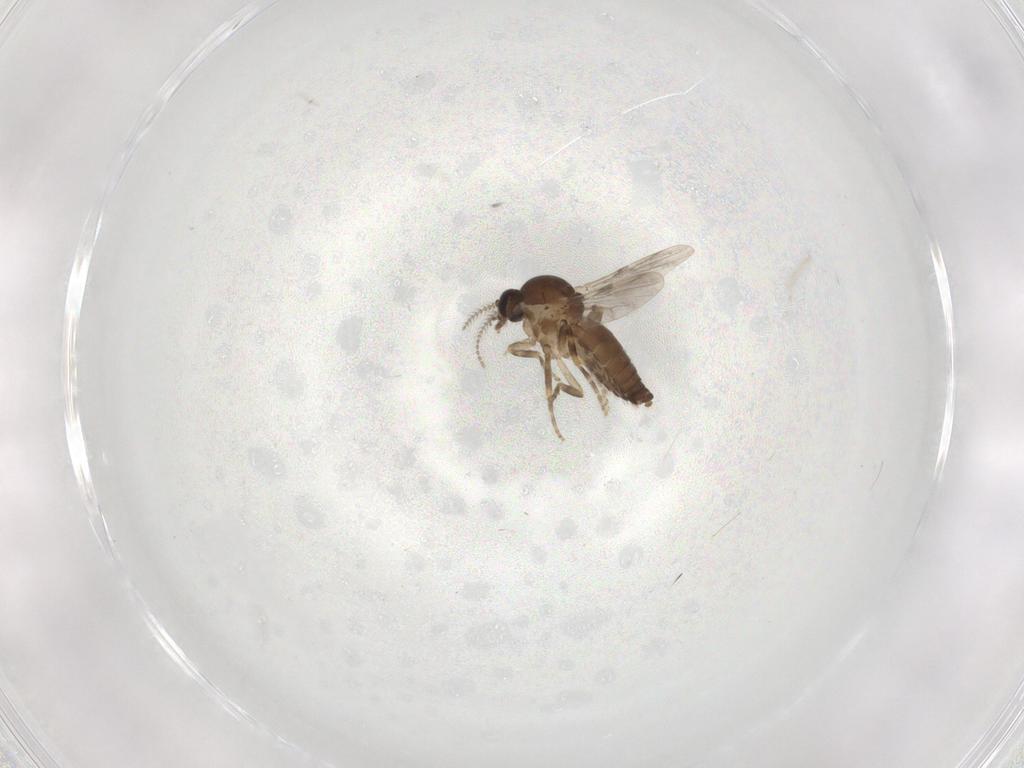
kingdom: Animalia
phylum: Arthropoda
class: Insecta
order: Diptera
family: Ceratopogonidae
